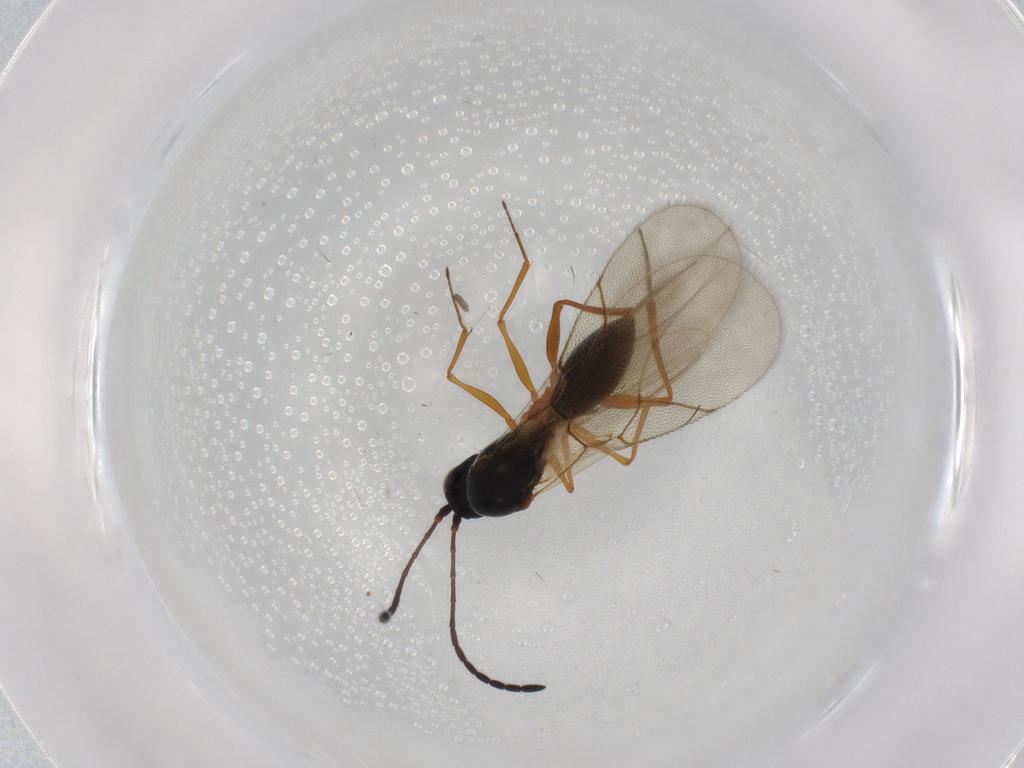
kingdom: Animalia
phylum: Arthropoda
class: Insecta
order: Hymenoptera
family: Figitidae
